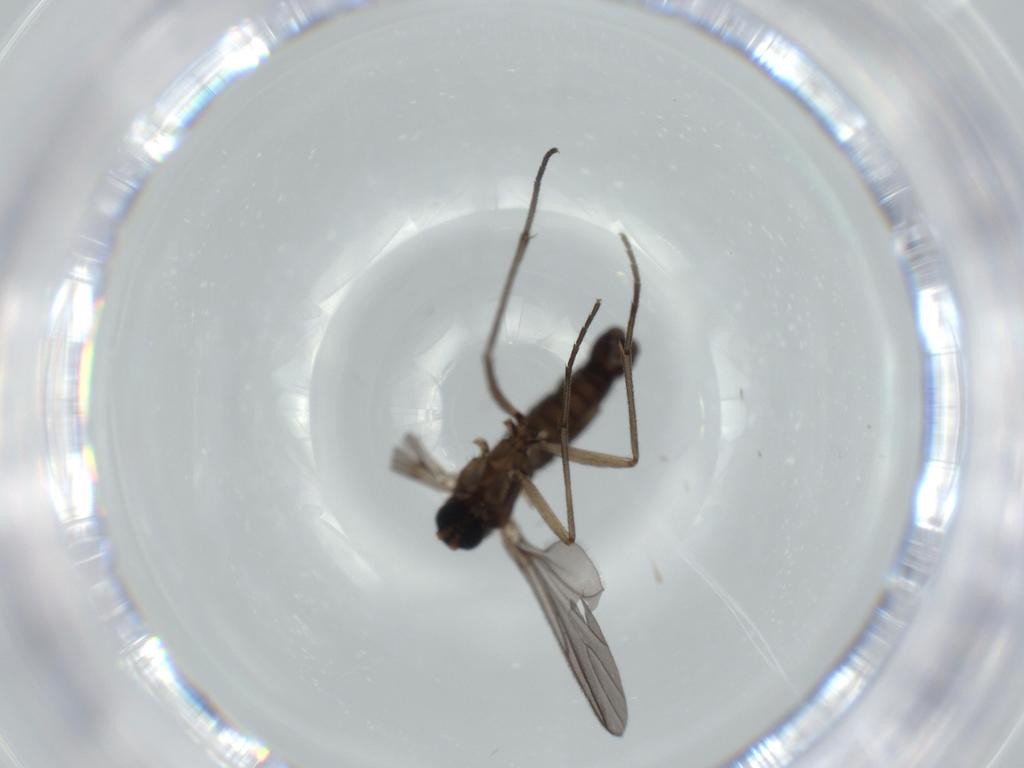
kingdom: Animalia
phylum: Arthropoda
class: Insecta
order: Diptera
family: Sciaridae
